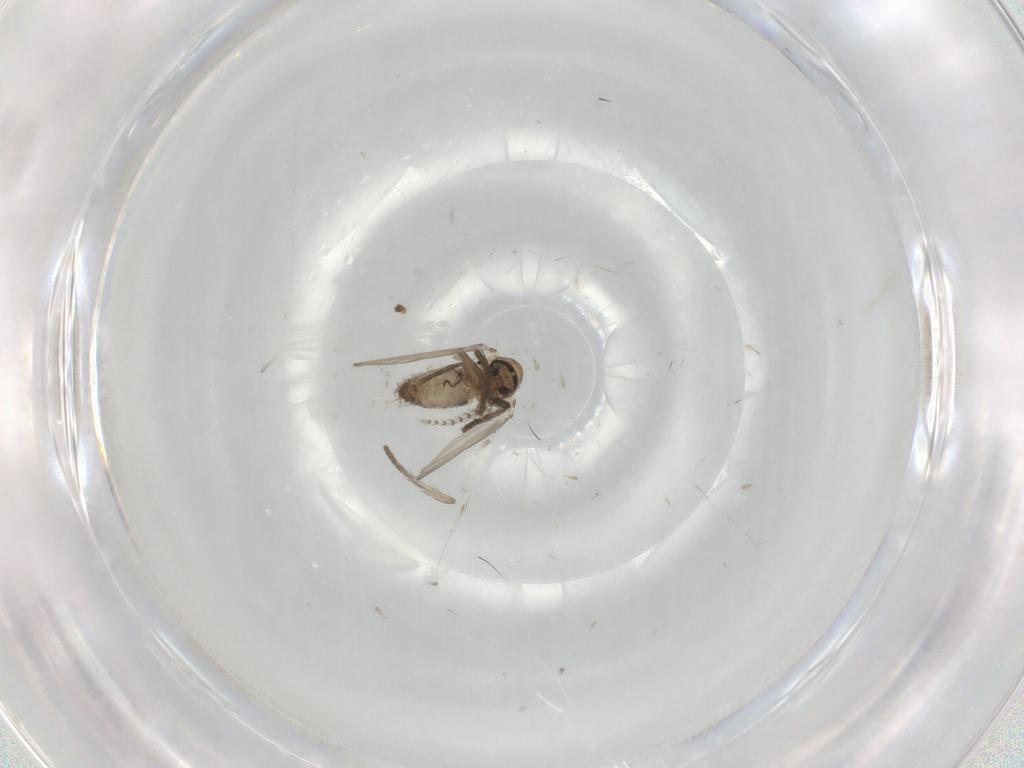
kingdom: Animalia
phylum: Arthropoda
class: Insecta
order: Diptera
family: Psychodidae
